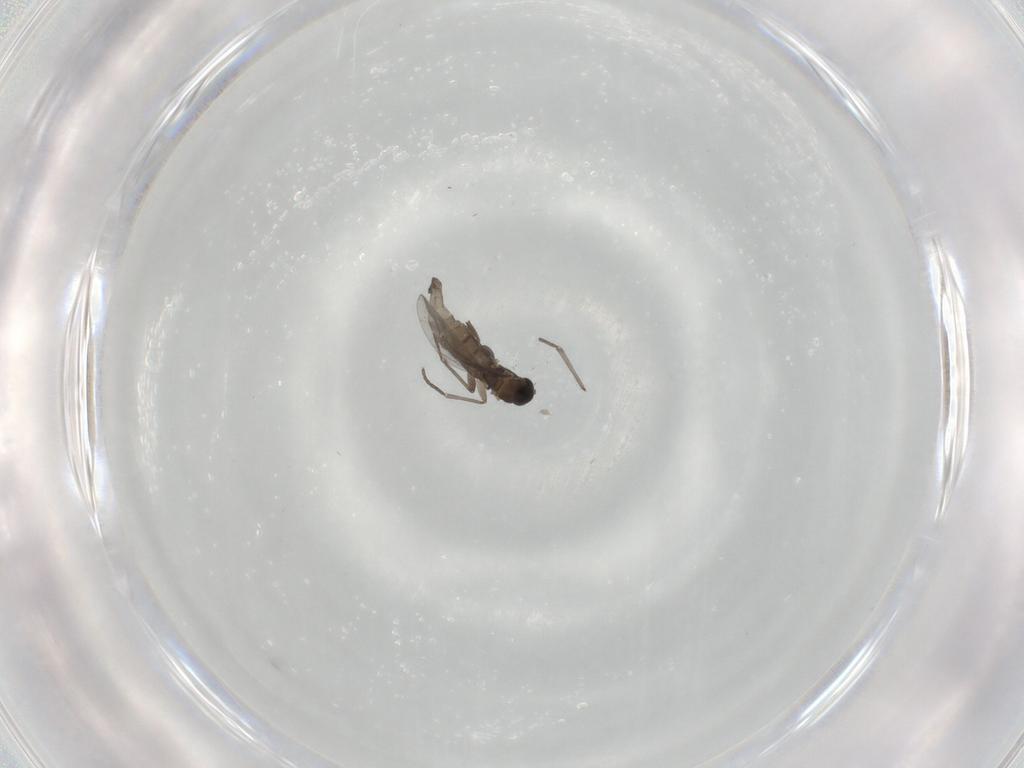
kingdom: Animalia
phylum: Arthropoda
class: Insecta
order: Diptera
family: Sciaridae
